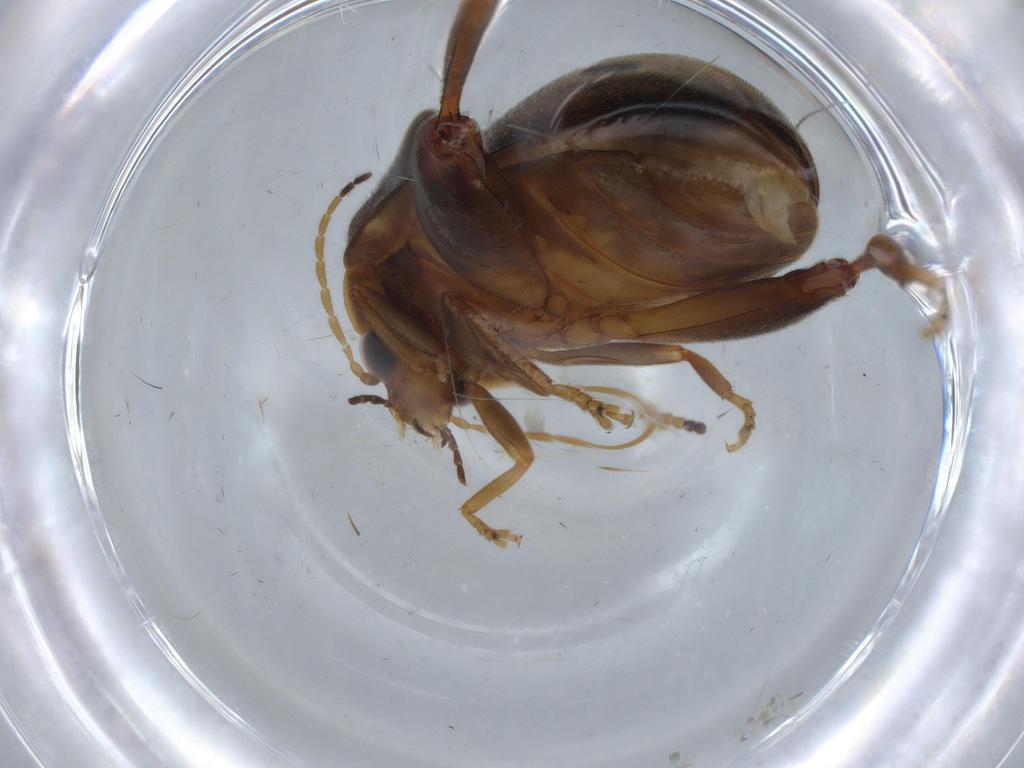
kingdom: Animalia
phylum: Arthropoda
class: Insecta
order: Coleoptera
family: Scirtidae
